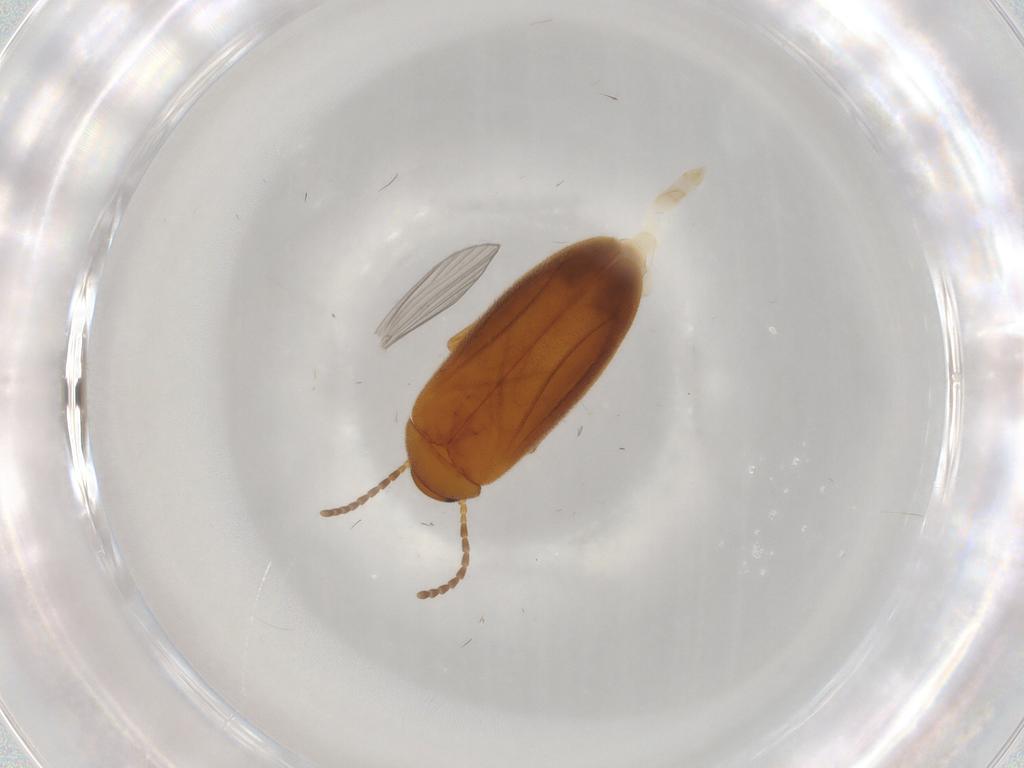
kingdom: Animalia
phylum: Arthropoda
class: Insecta
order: Coleoptera
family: Scraptiidae
